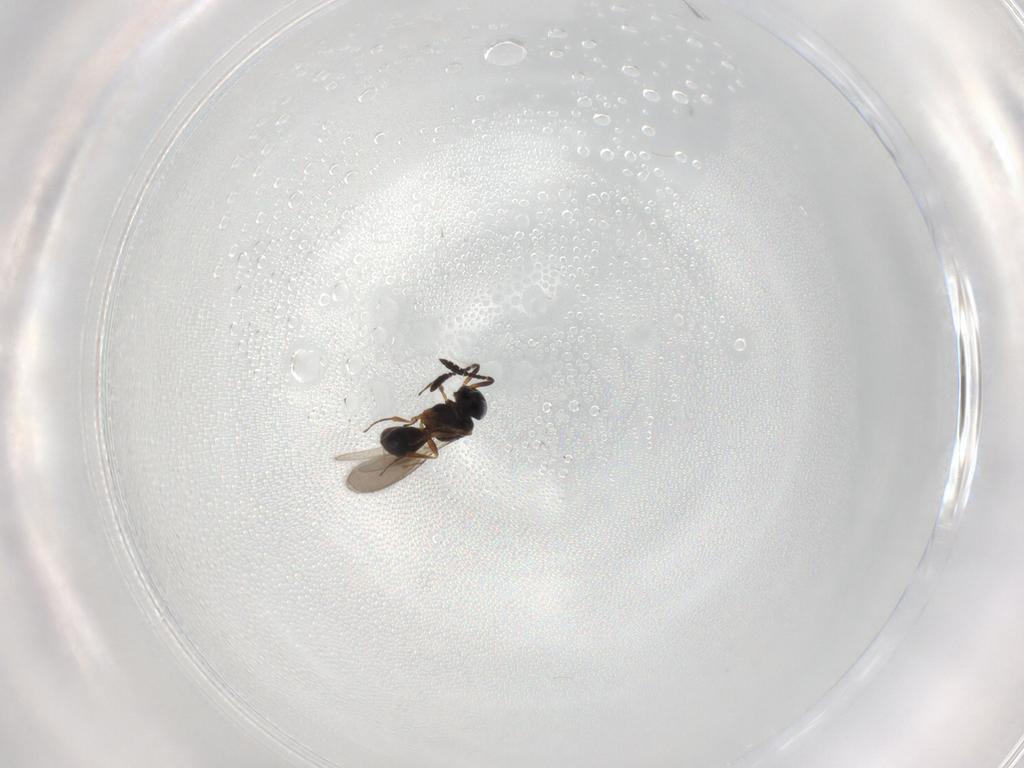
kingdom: Animalia
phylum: Arthropoda
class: Insecta
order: Hymenoptera
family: Scelionidae
